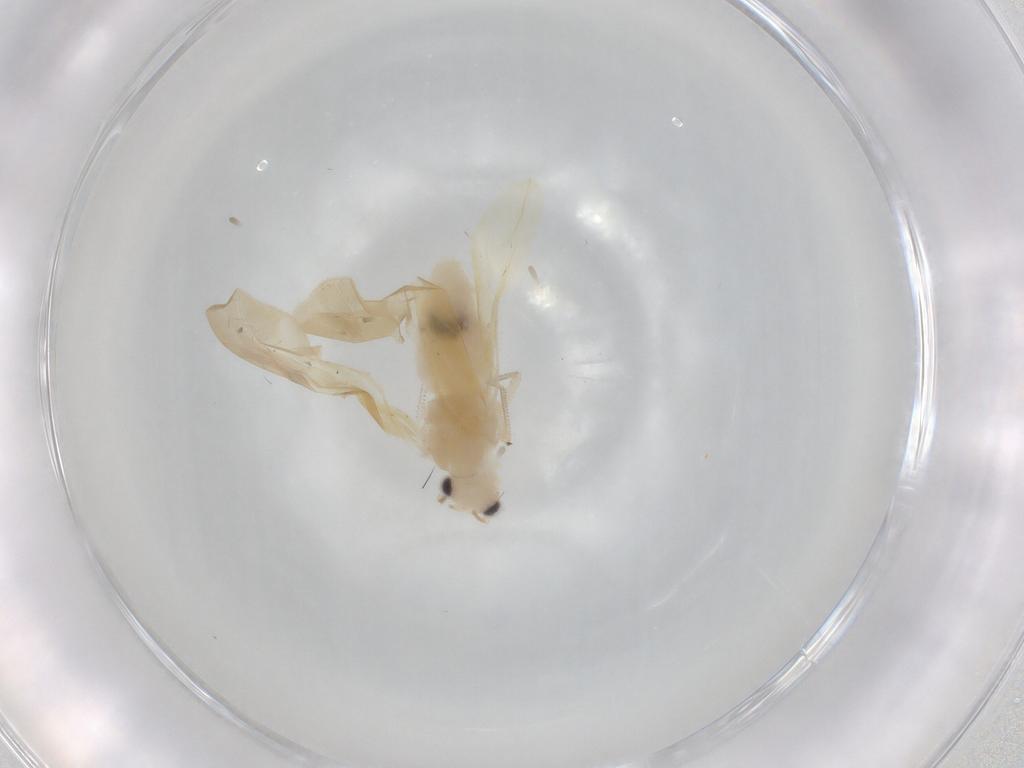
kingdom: Animalia
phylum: Arthropoda
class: Insecta
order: Psocodea
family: Caeciliusidae
